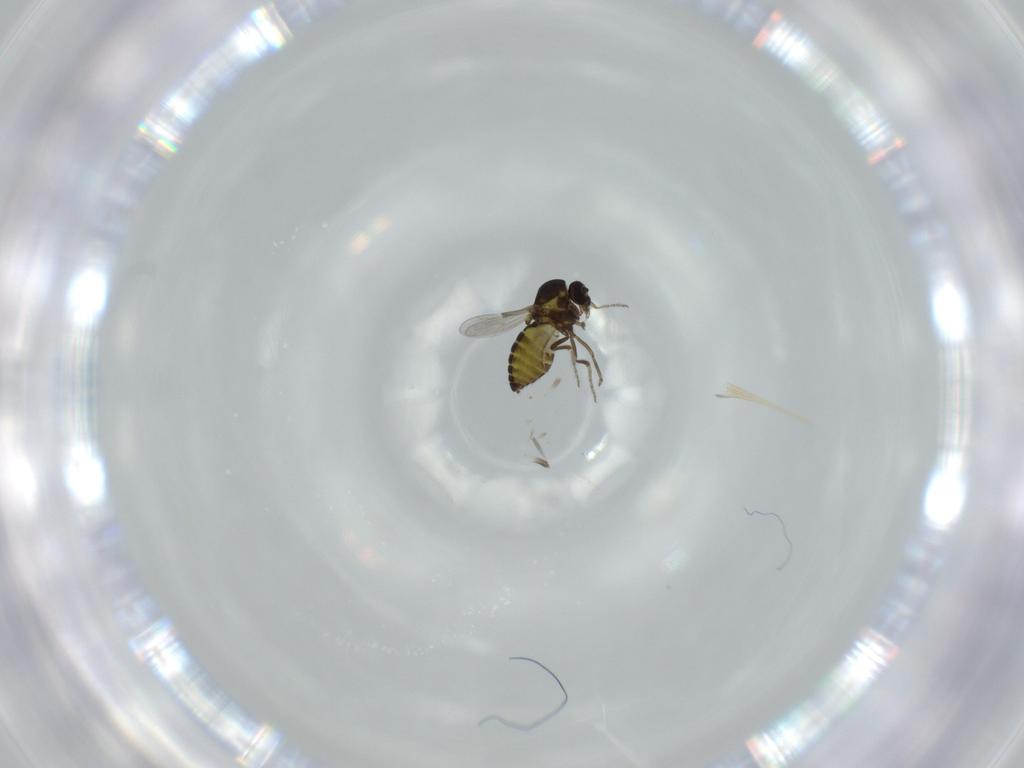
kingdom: Animalia
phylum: Arthropoda
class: Insecta
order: Diptera
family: Ceratopogonidae
